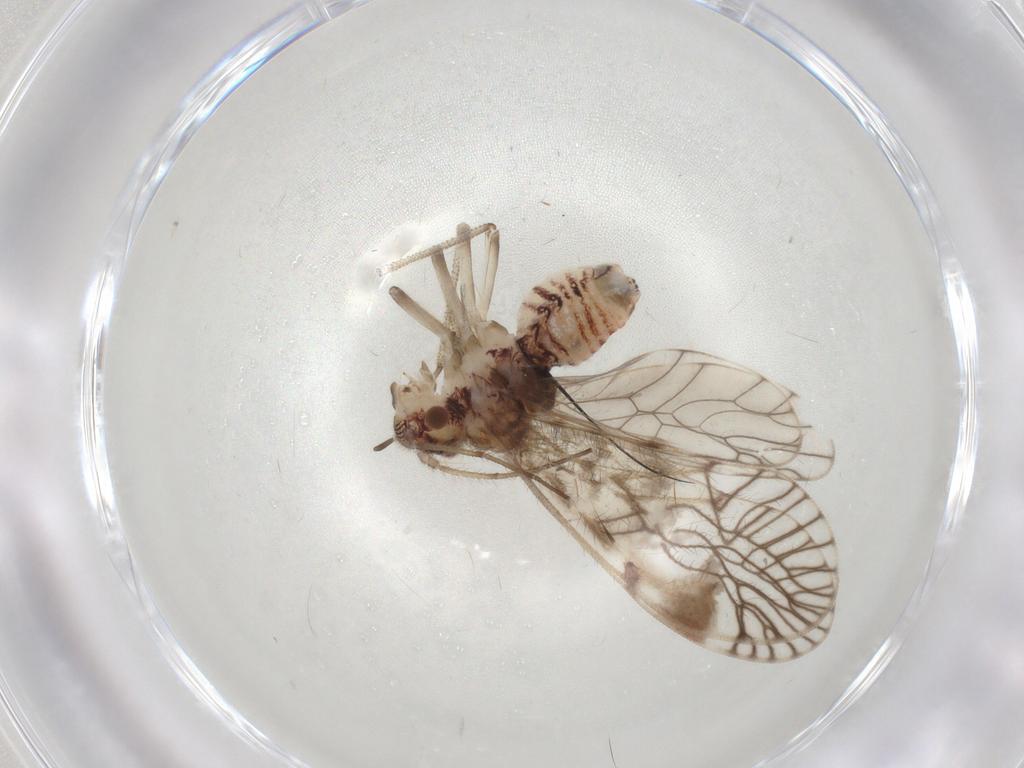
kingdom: Animalia
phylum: Arthropoda
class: Insecta
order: Psocodea
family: Amphipsocidae
